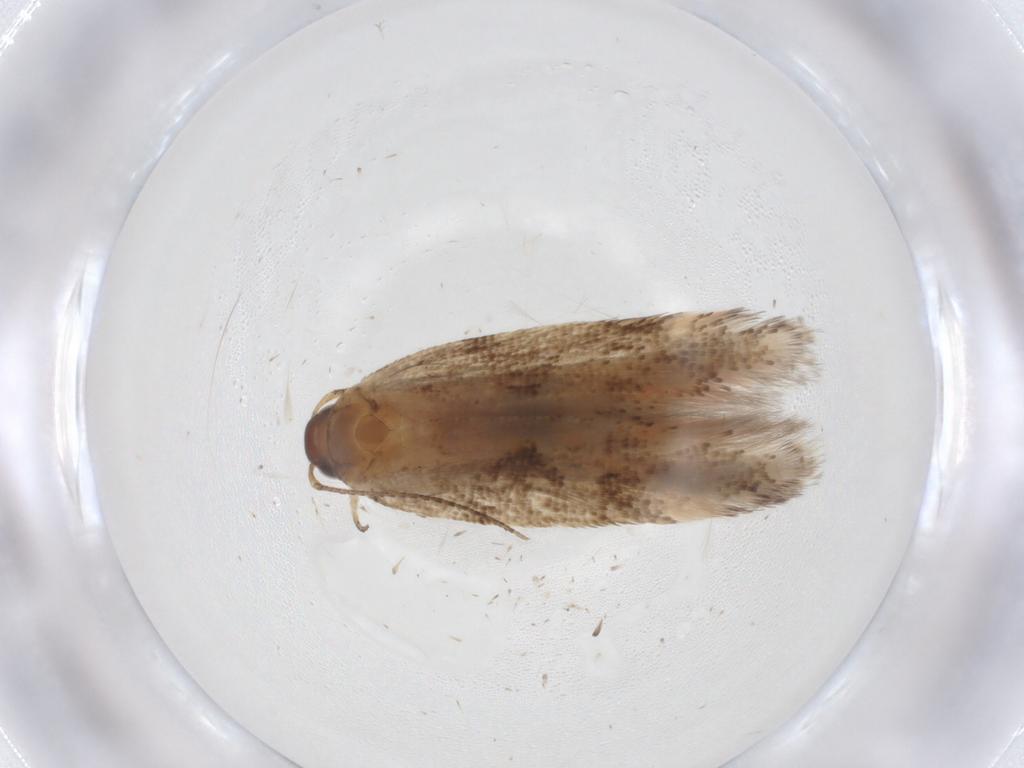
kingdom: Animalia
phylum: Arthropoda
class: Insecta
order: Lepidoptera
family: Gelechiidae
